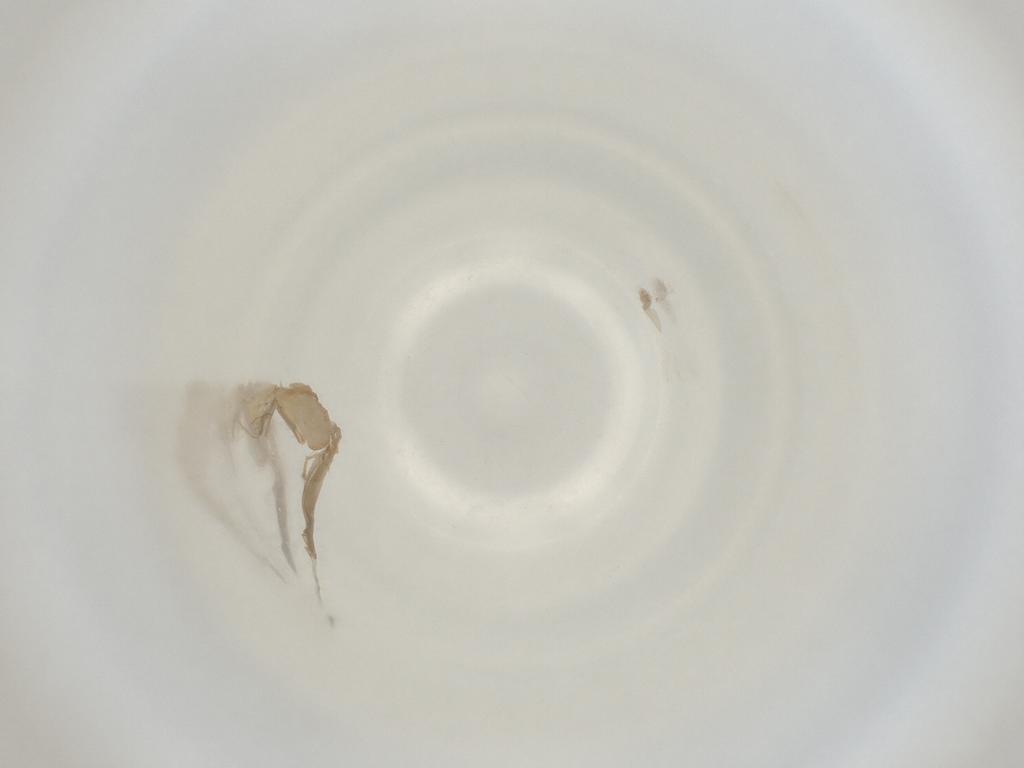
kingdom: Animalia
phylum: Arthropoda
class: Insecta
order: Diptera
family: Cecidomyiidae
